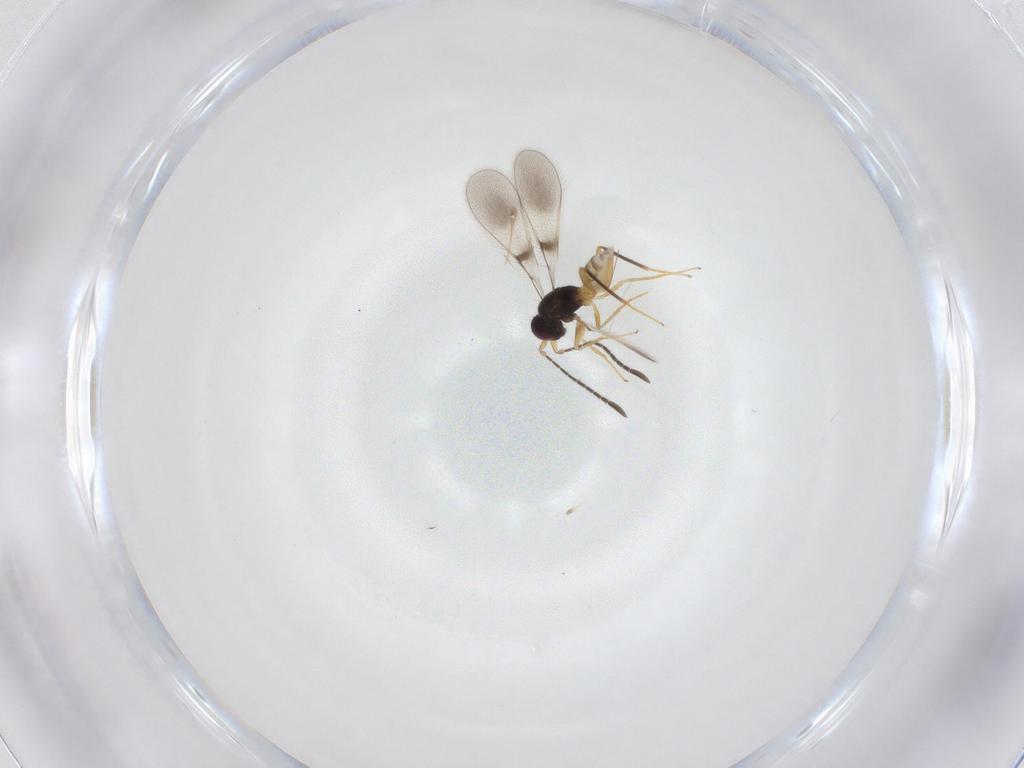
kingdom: Animalia
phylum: Arthropoda
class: Insecta
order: Hymenoptera
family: Mymaridae
